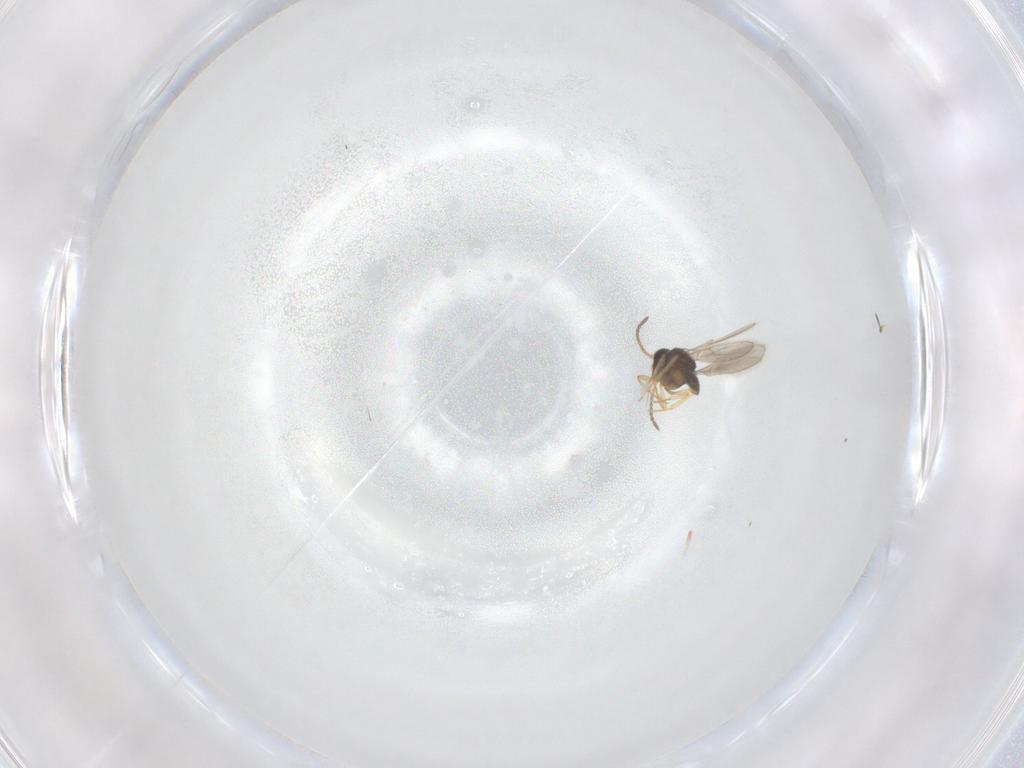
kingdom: Animalia
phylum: Arthropoda
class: Insecta
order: Hymenoptera
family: Scelionidae
